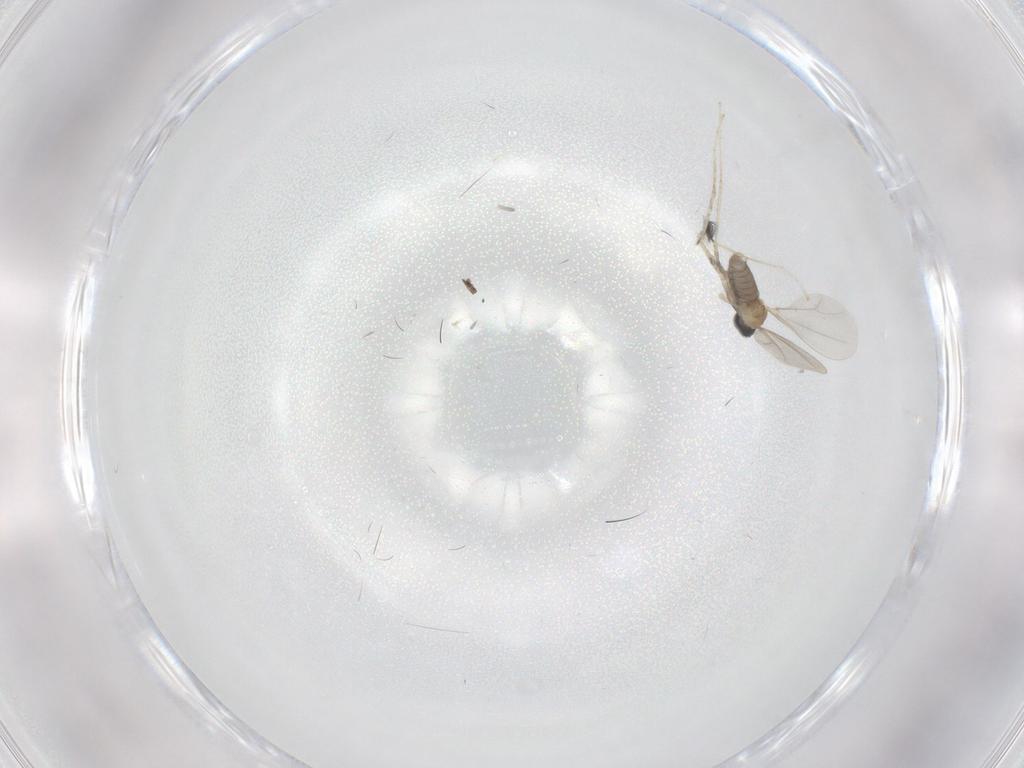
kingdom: Animalia
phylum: Arthropoda
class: Insecta
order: Diptera
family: Cecidomyiidae
